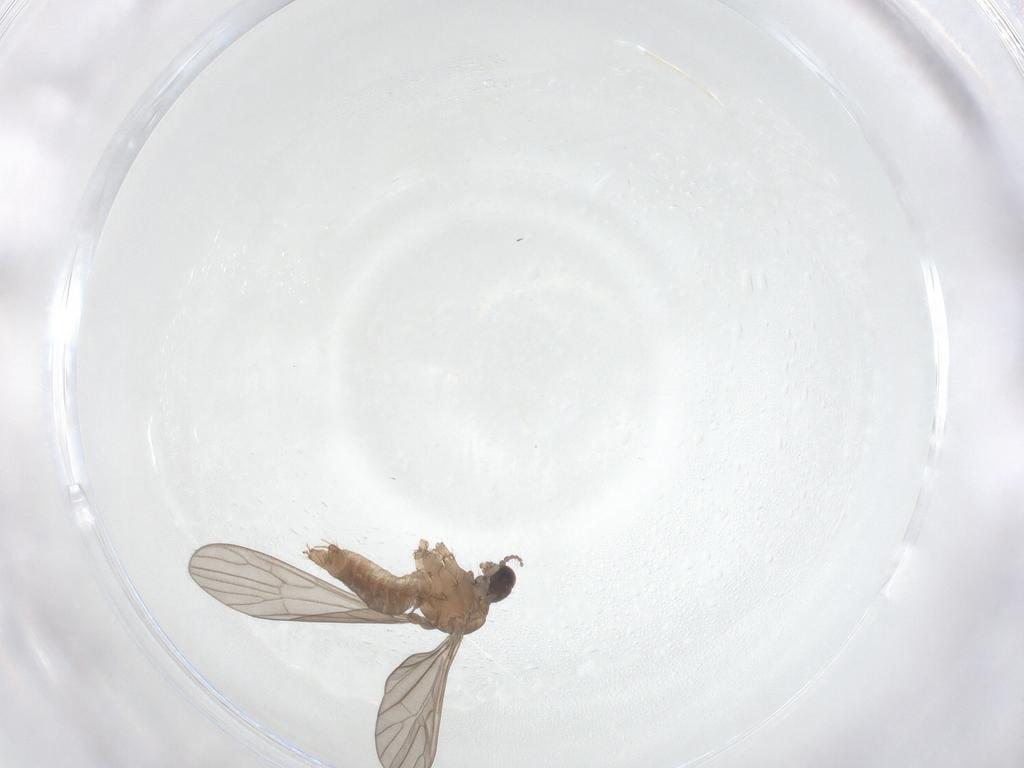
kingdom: Animalia
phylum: Arthropoda
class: Insecta
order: Diptera
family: Limoniidae
